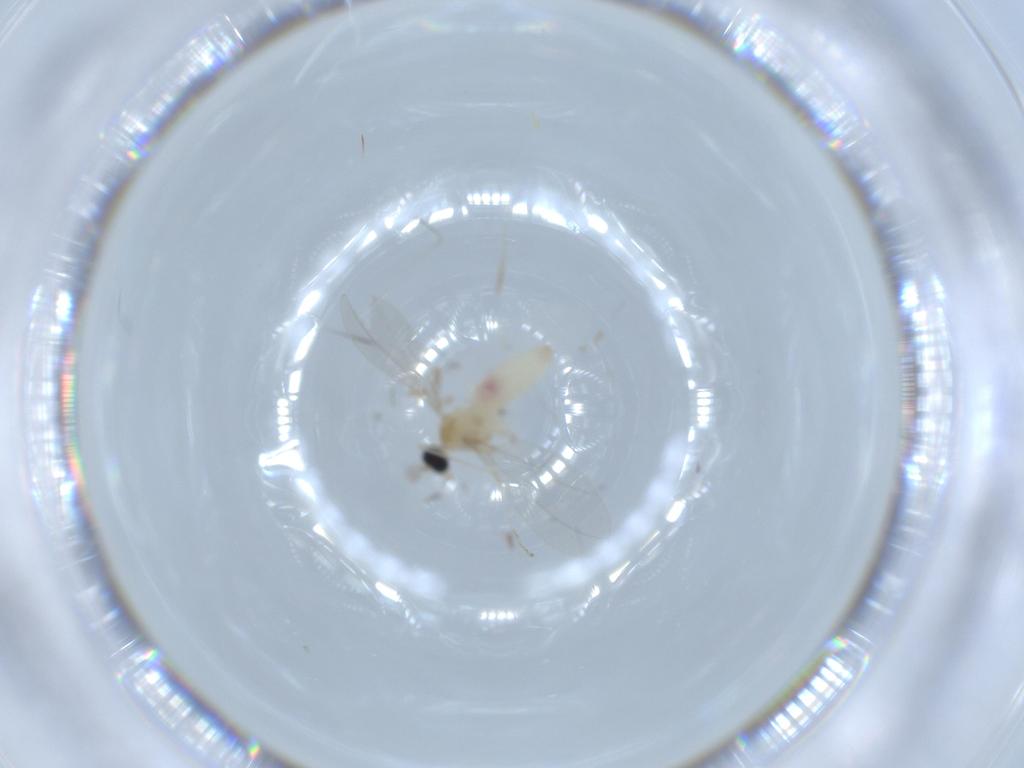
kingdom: Animalia
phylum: Arthropoda
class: Insecta
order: Diptera
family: Cecidomyiidae
